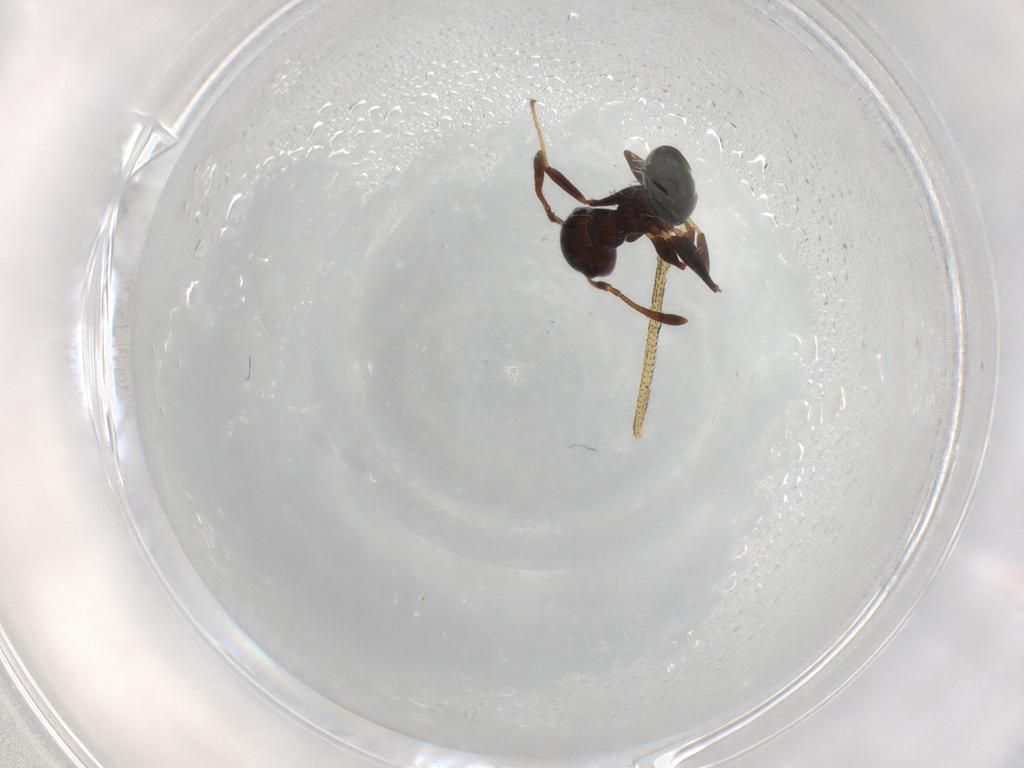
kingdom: Animalia
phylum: Arthropoda
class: Insecta
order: Hymenoptera
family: Formicidae
